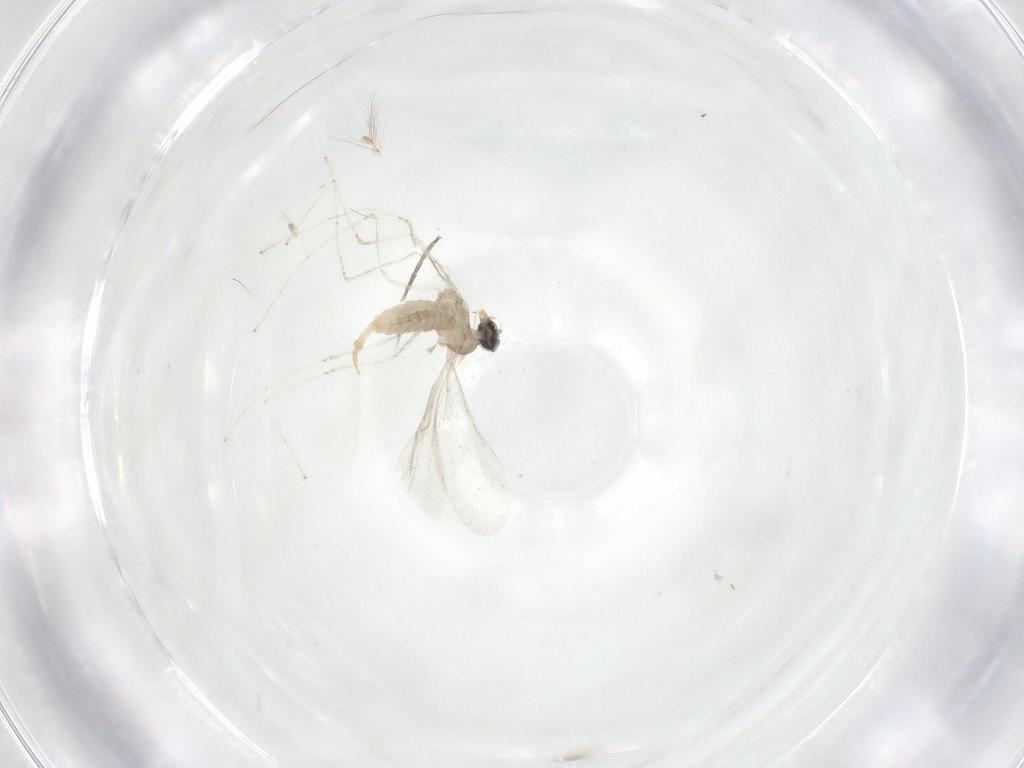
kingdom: Animalia
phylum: Arthropoda
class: Insecta
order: Diptera
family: Cecidomyiidae
